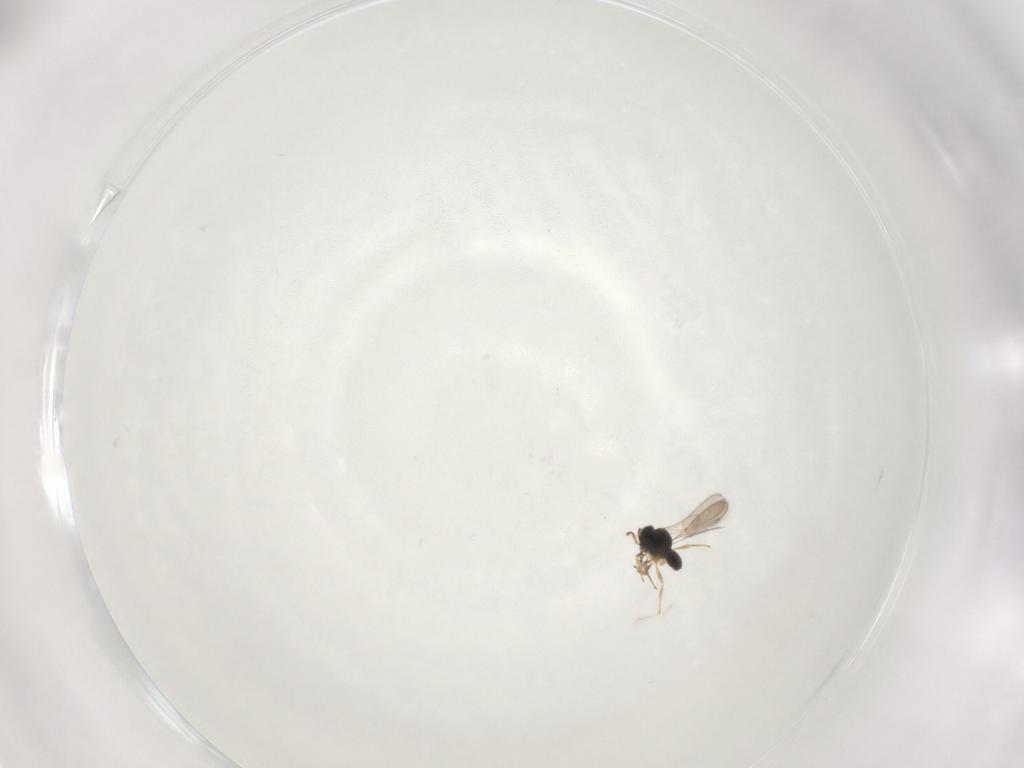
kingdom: Animalia
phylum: Arthropoda
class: Insecta
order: Hymenoptera
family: Scelionidae
